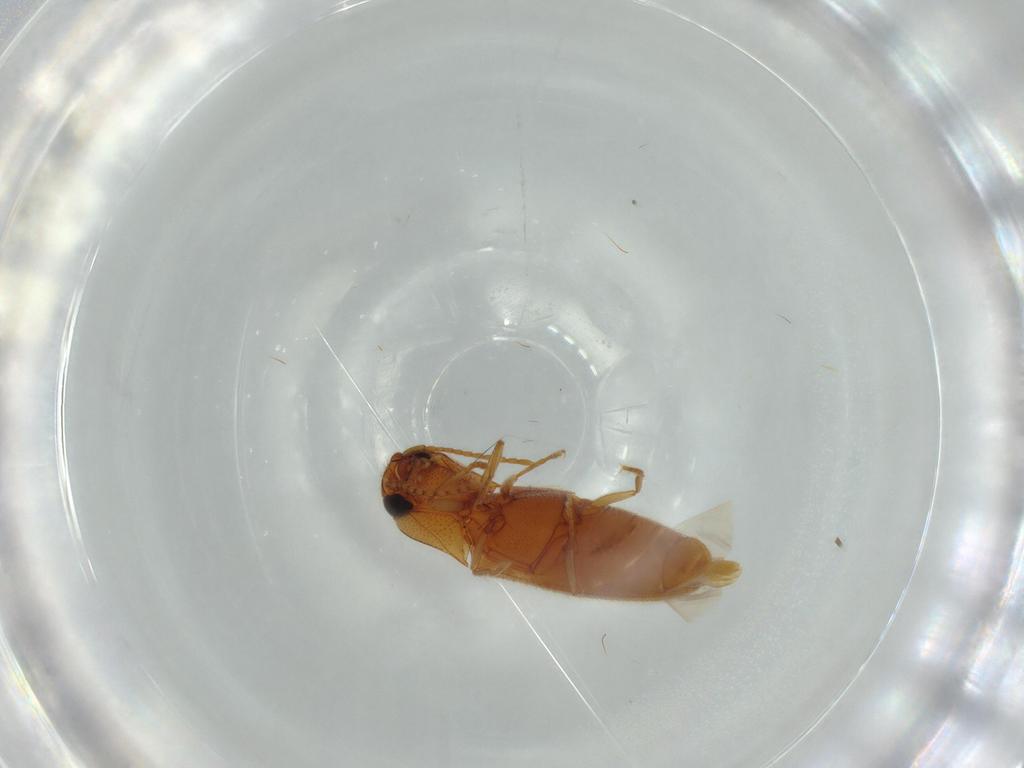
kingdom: Animalia
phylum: Arthropoda
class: Insecta
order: Coleoptera
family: Elateridae
